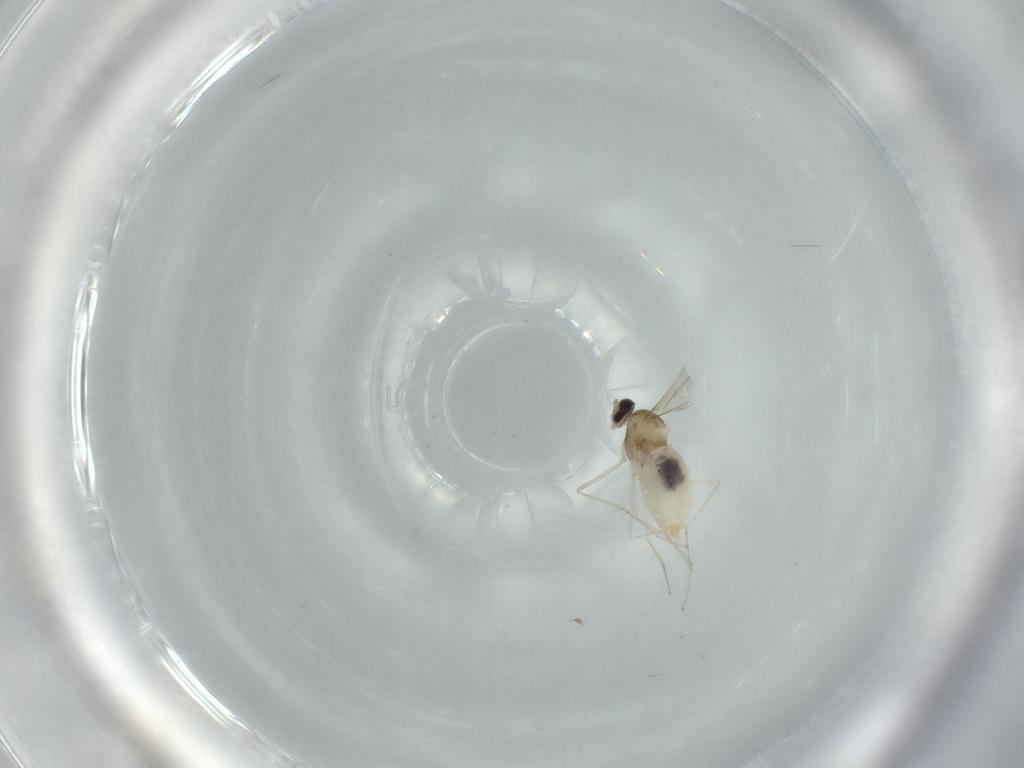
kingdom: Animalia
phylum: Arthropoda
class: Insecta
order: Diptera
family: Sciaridae
